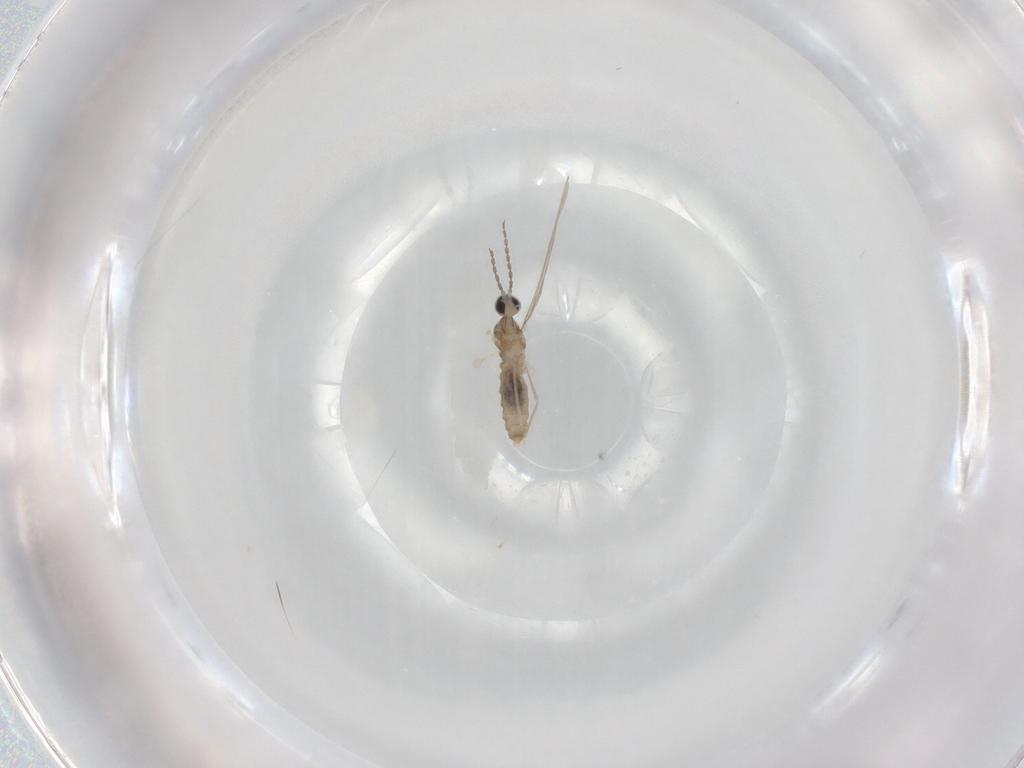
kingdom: Animalia
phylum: Arthropoda
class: Insecta
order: Diptera
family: Cecidomyiidae
